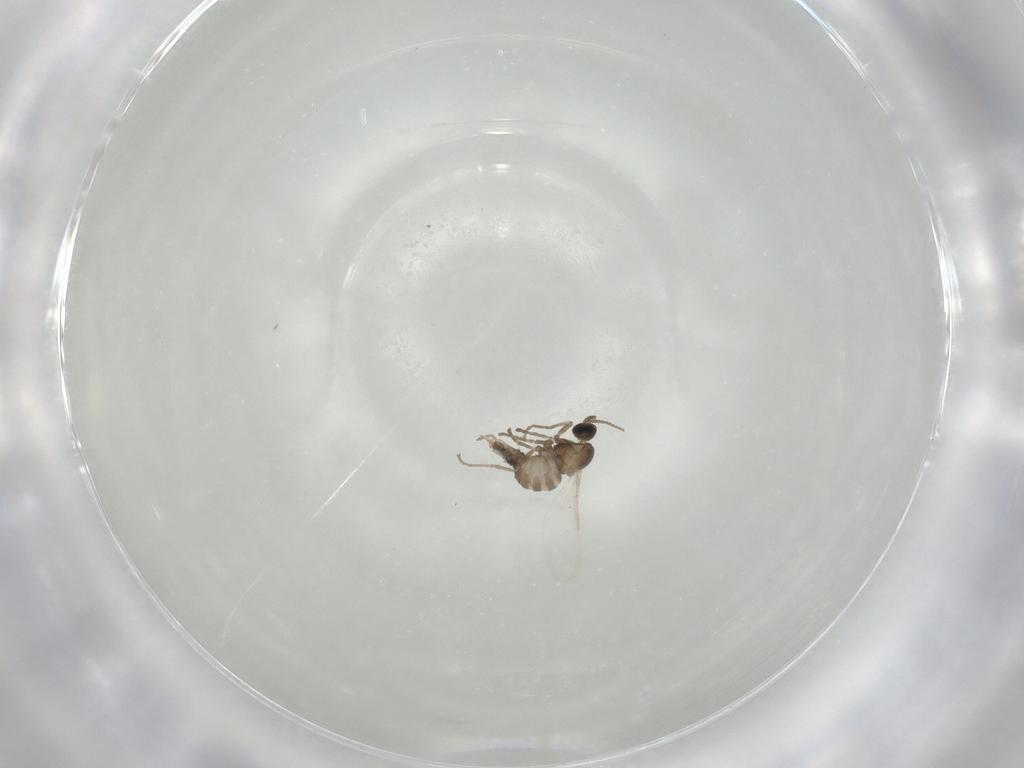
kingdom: Animalia
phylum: Arthropoda
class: Insecta
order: Diptera
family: Cecidomyiidae
